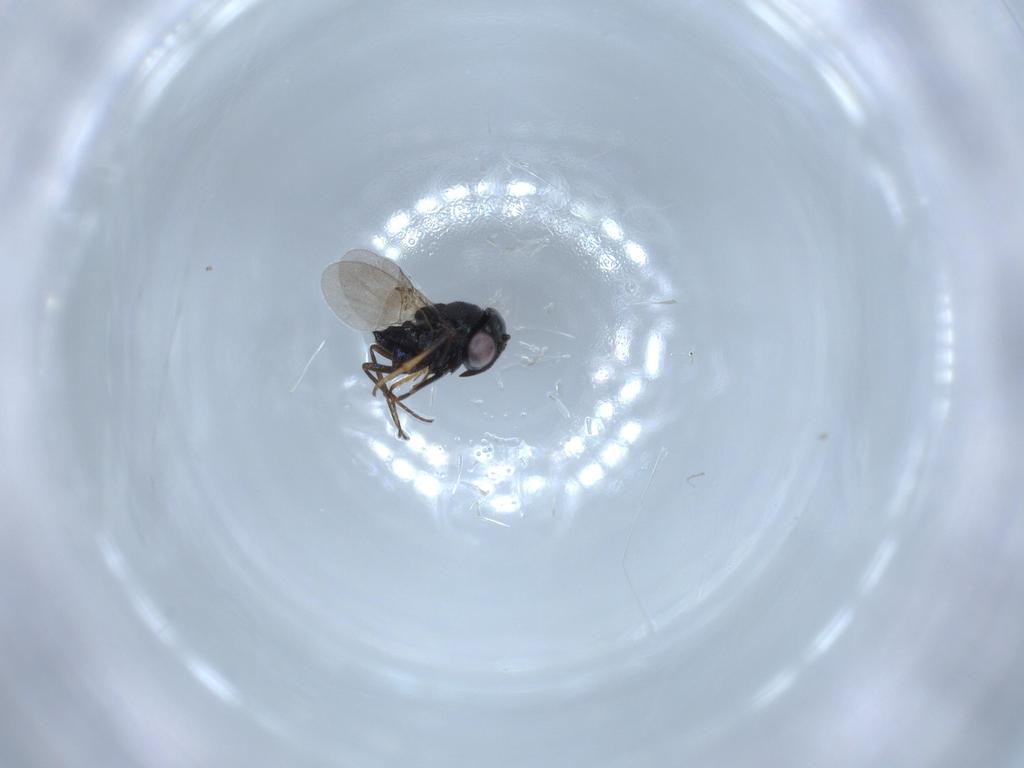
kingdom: Animalia
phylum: Arthropoda
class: Insecta
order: Hymenoptera
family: Encyrtidae
